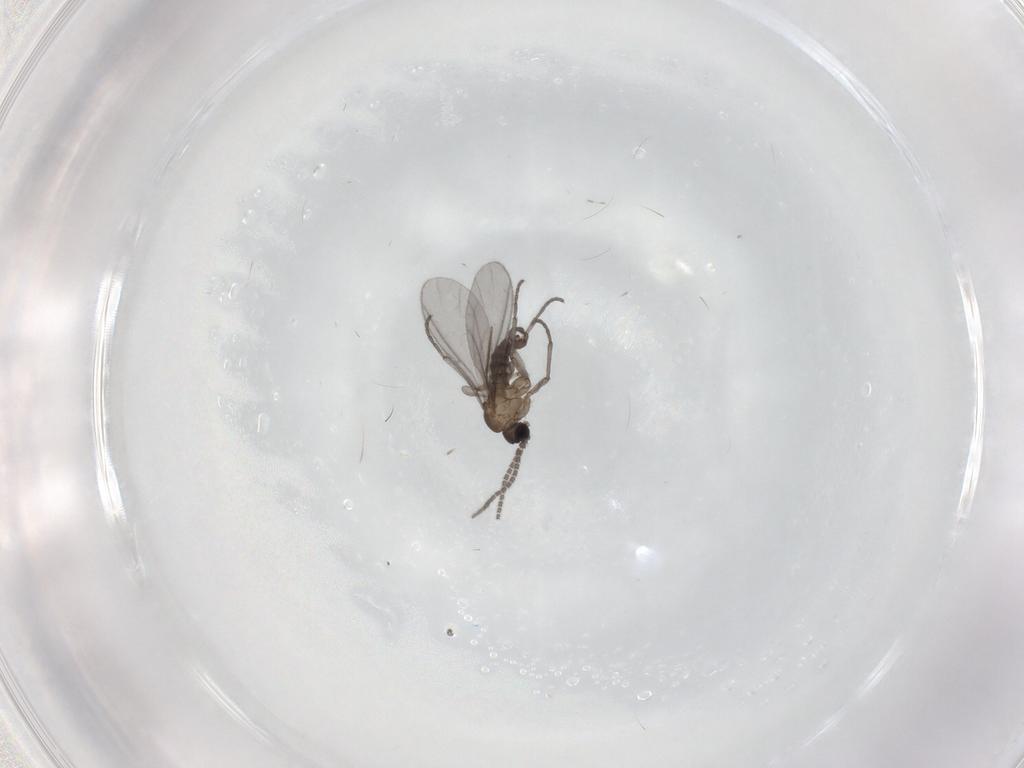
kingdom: Animalia
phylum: Arthropoda
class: Insecta
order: Diptera
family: Sciaridae
